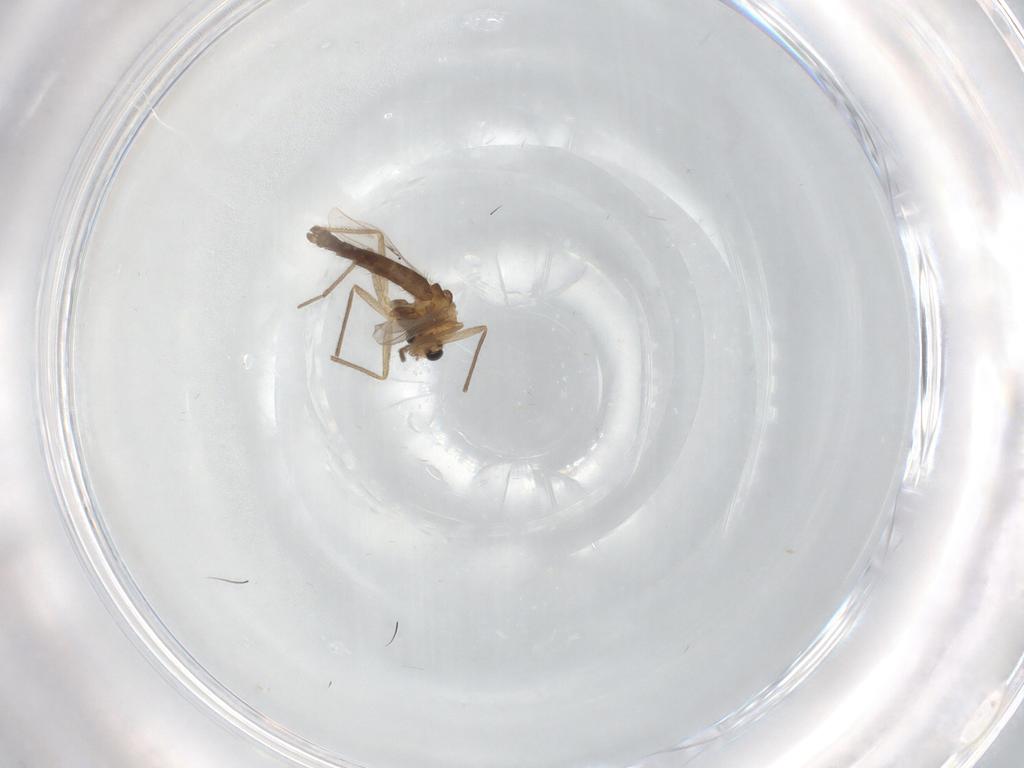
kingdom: Animalia
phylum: Arthropoda
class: Insecta
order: Diptera
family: Chironomidae
